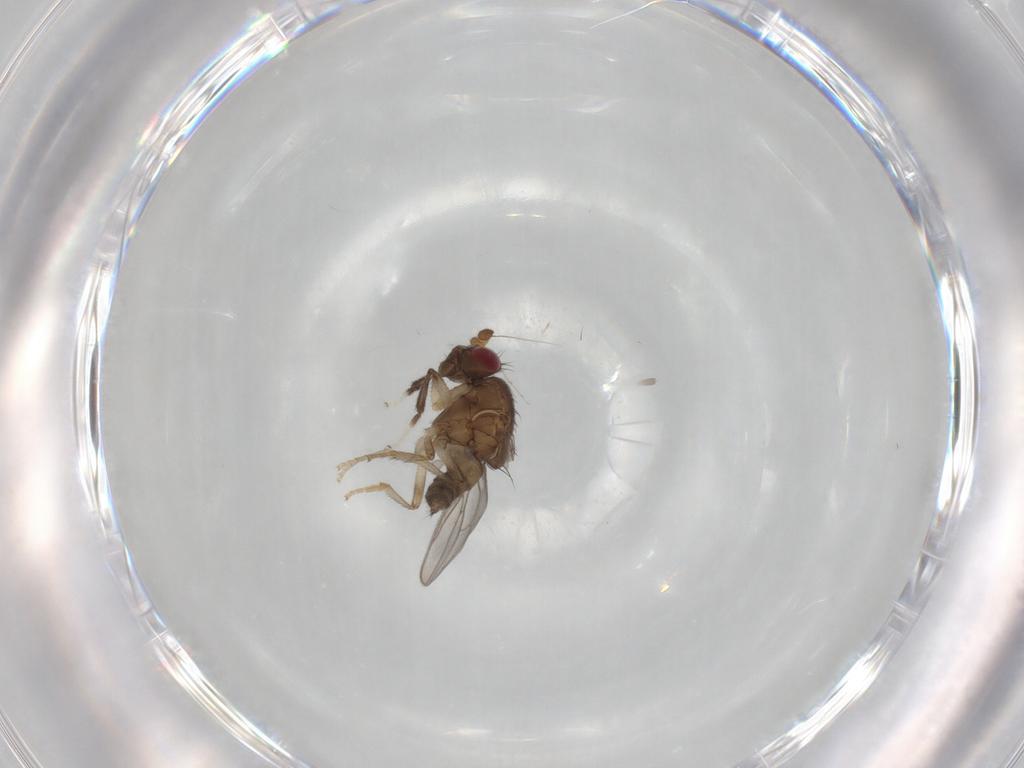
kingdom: Animalia
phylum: Arthropoda
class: Insecta
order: Diptera
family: Sphaeroceridae
